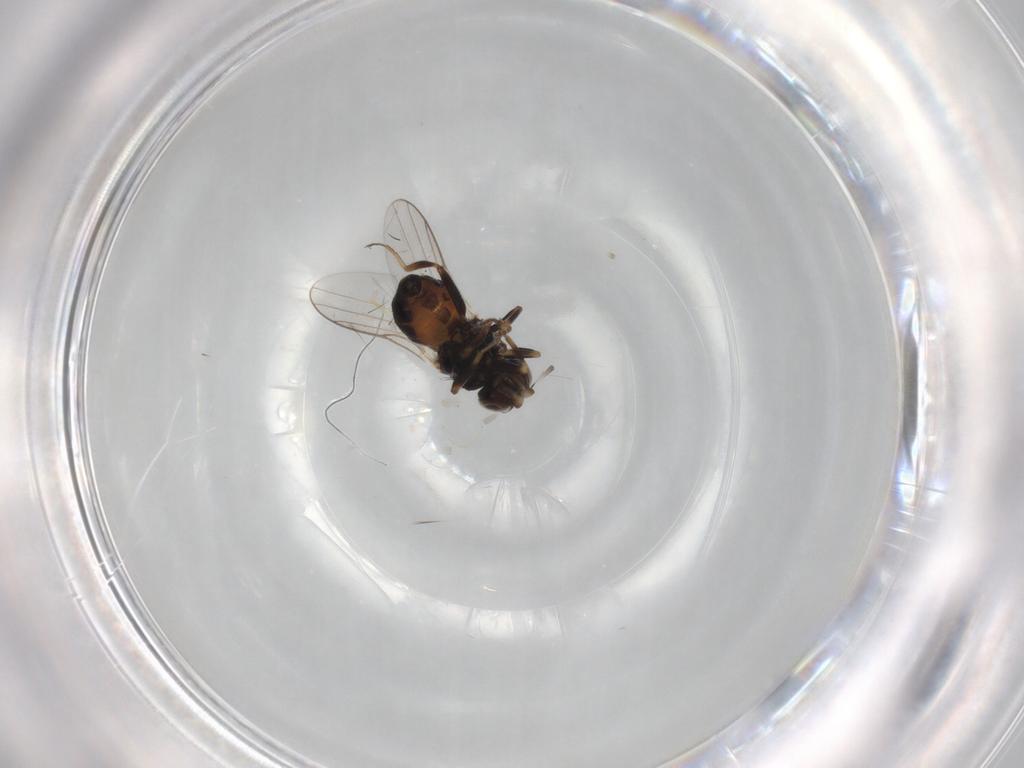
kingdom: Animalia
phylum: Arthropoda
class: Insecta
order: Diptera
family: Chloropidae
